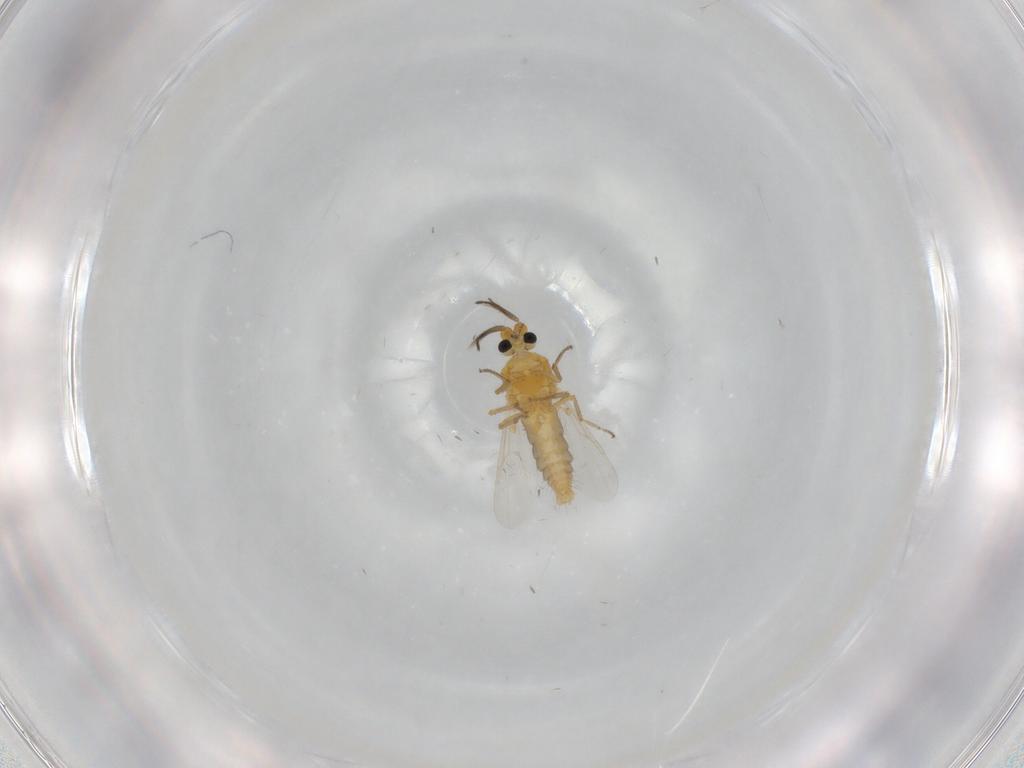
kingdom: Animalia
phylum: Arthropoda
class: Insecta
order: Diptera
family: Ceratopogonidae
